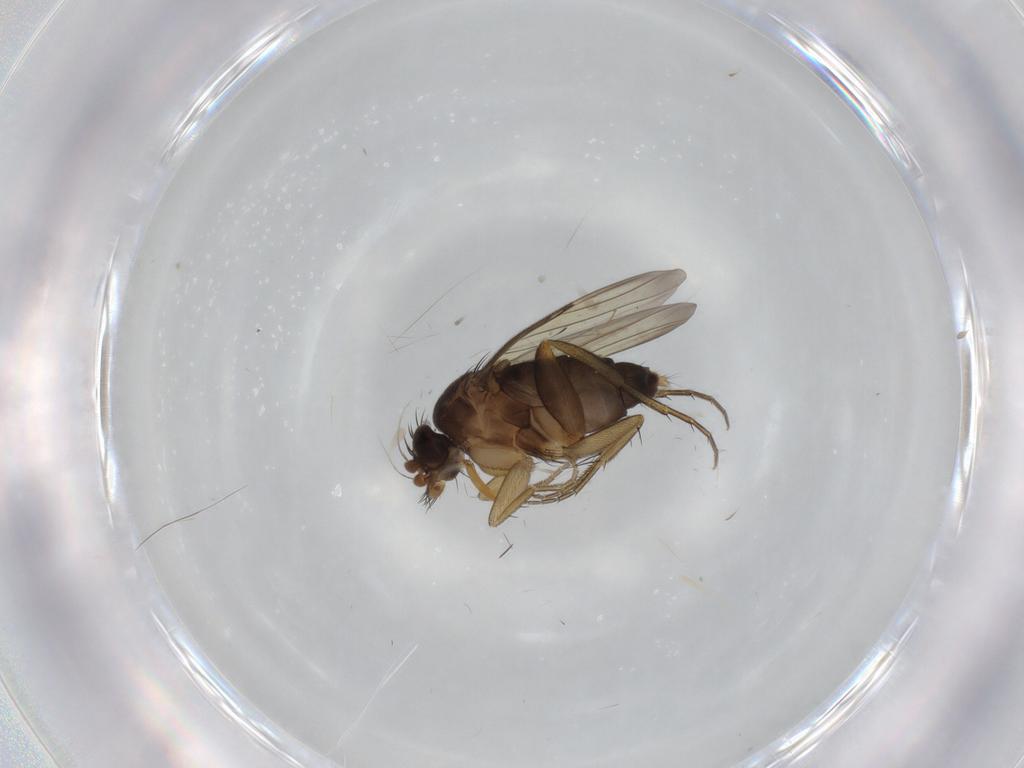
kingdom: Animalia
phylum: Arthropoda
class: Insecta
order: Diptera
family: Phoridae
